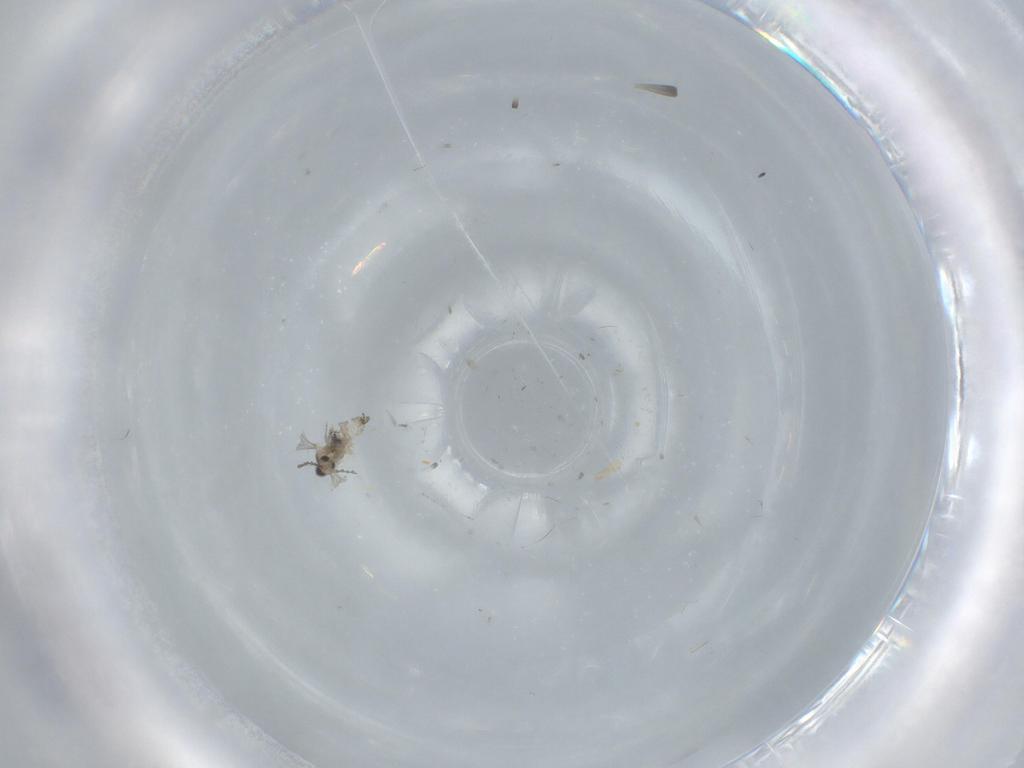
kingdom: Animalia
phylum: Arthropoda
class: Insecta
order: Diptera
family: Cecidomyiidae
